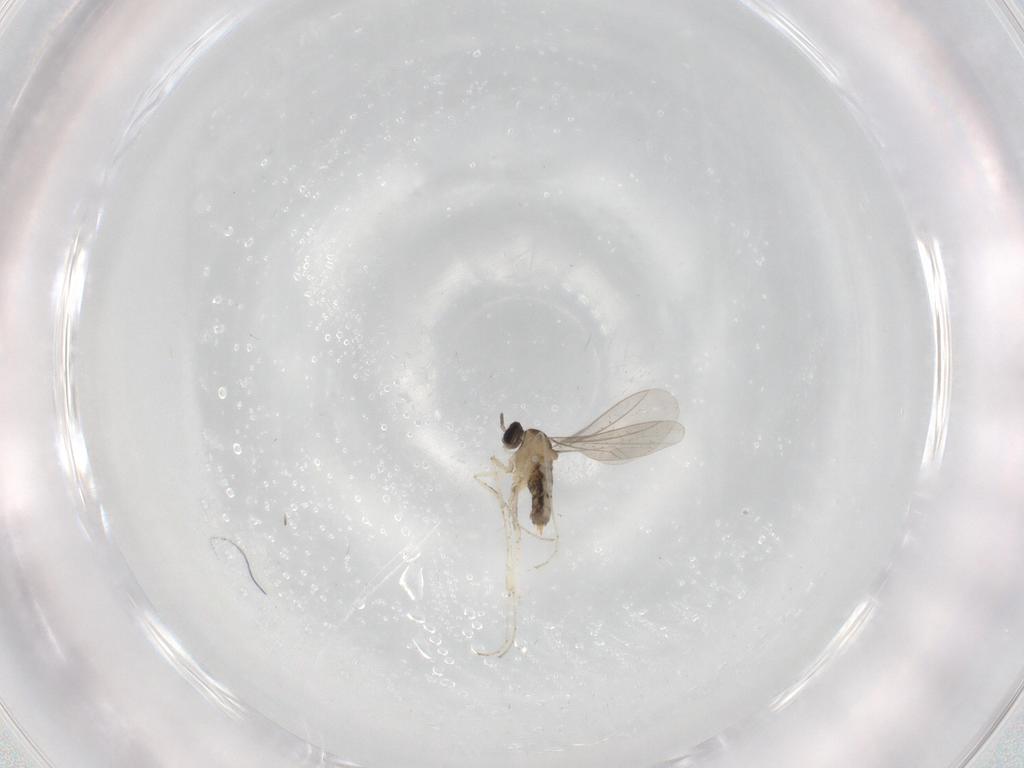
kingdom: Animalia
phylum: Arthropoda
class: Insecta
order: Diptera
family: Cecidomyiidae
